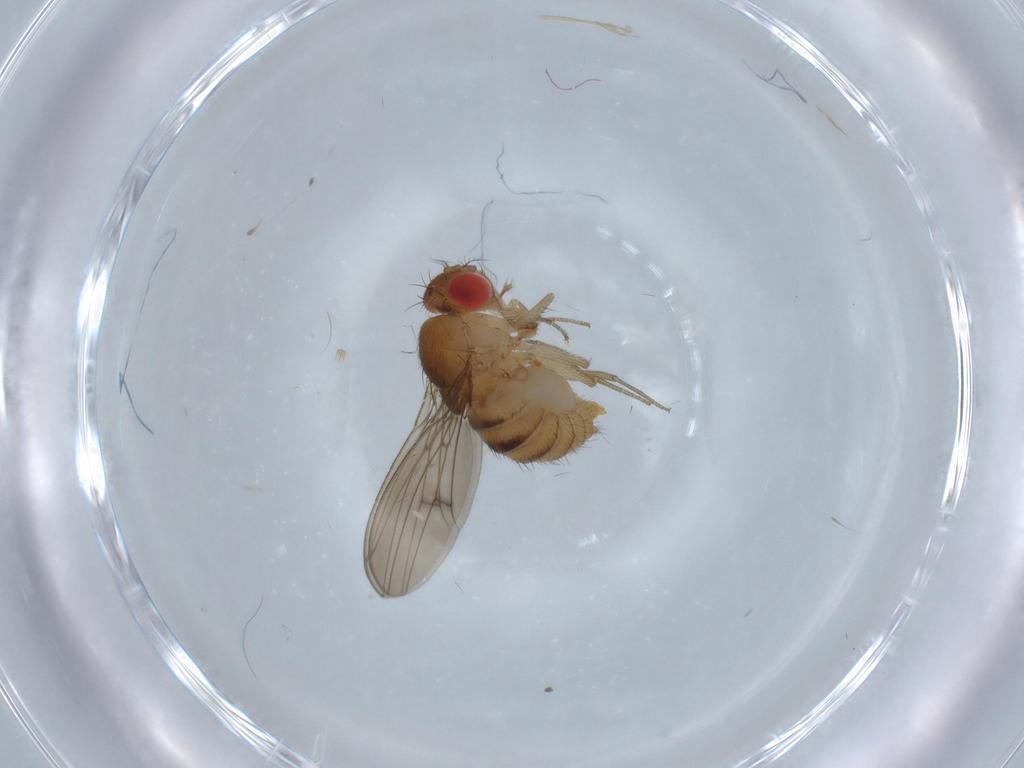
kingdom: Animalia
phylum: Arthropoda
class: Insecta
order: Diptera
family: Drosophilidae
